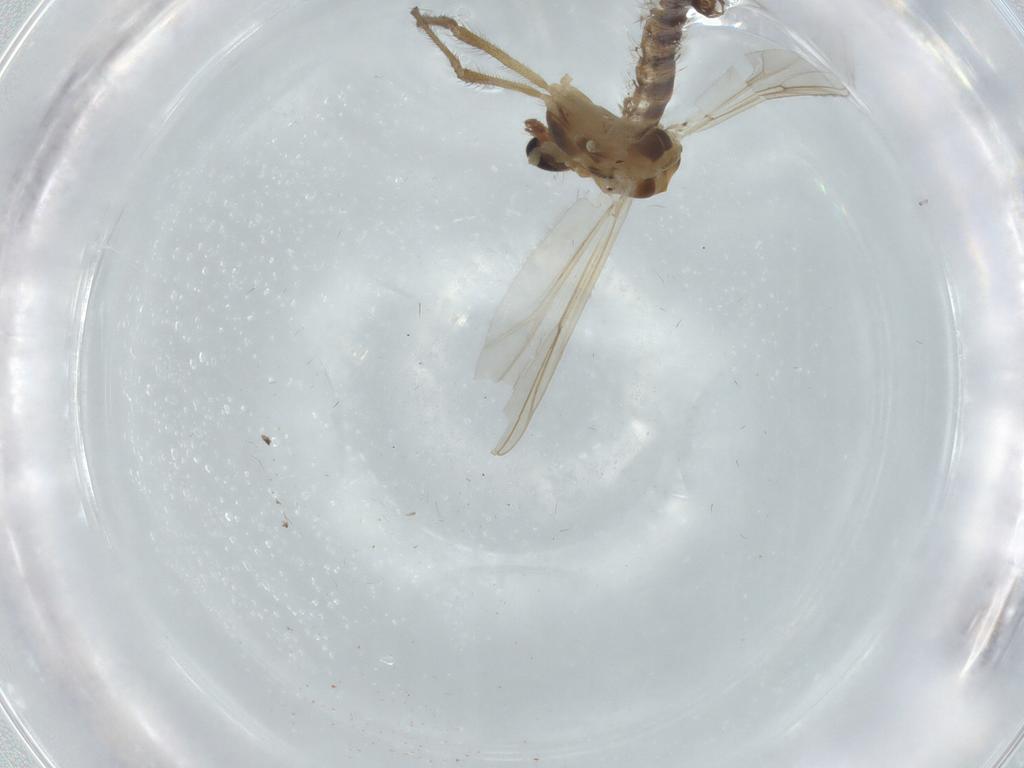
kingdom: Animalia
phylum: Arthropoda
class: Insecta
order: Diptera
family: Chironomidae
